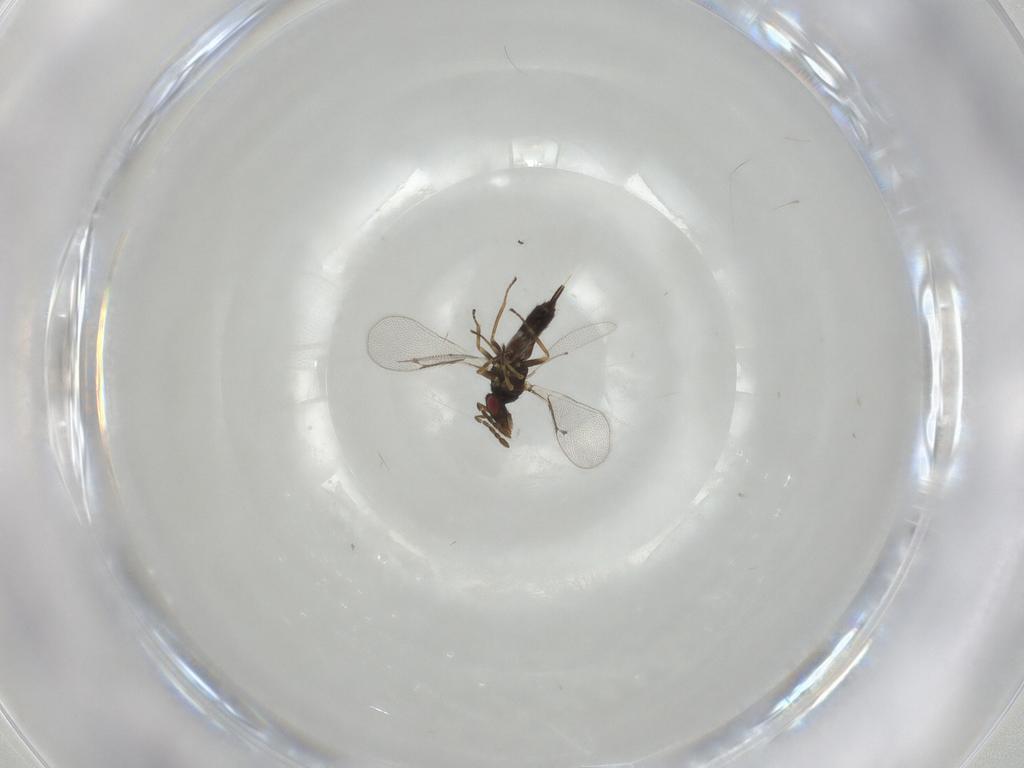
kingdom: Animalia
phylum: Arthropoda
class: Insecta
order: Hymenoptera
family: Eulophidae
